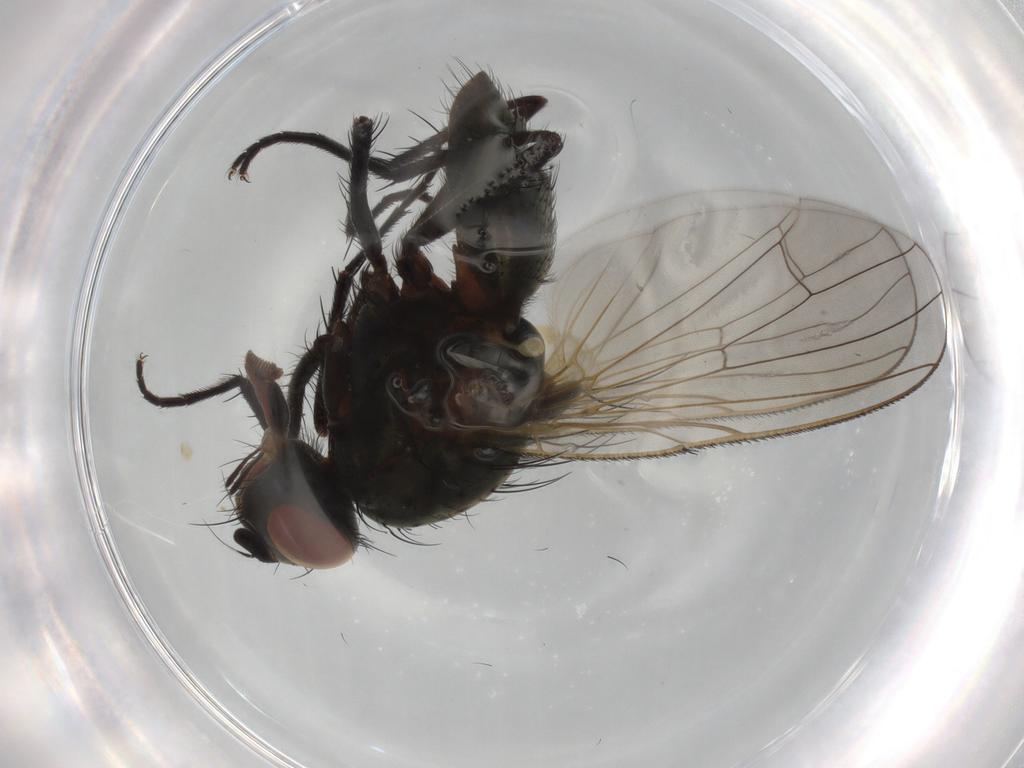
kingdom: Animalia
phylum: Arthropoda
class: Insecta
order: Diptera
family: Anthomyiidae
